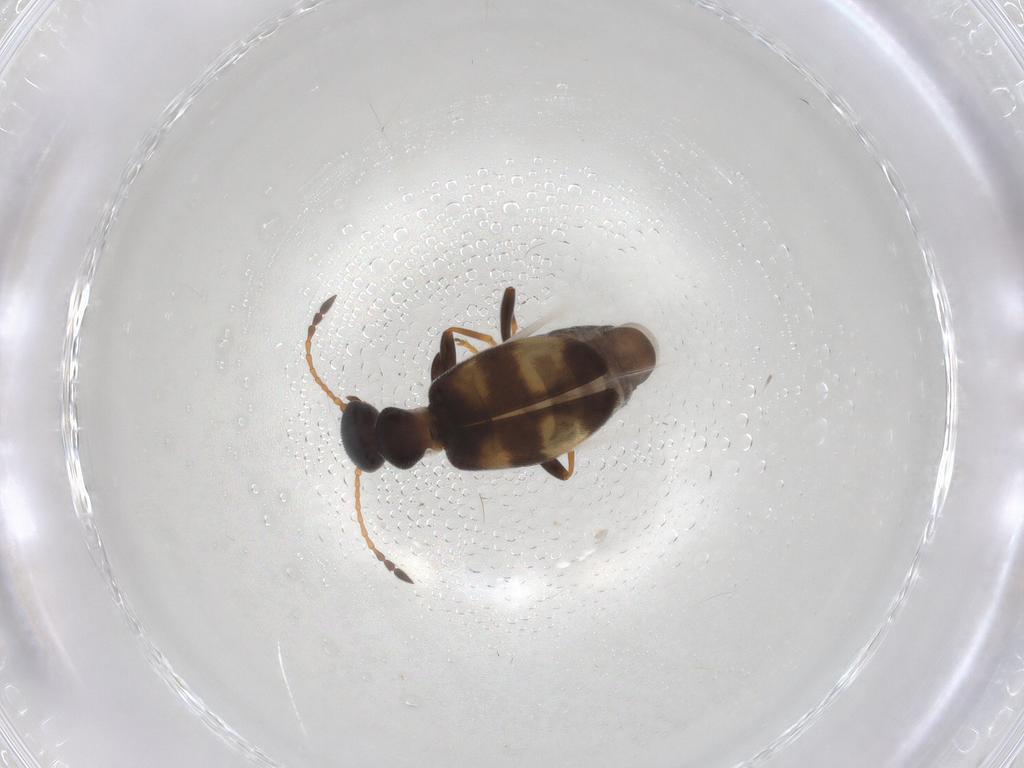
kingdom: Animalia
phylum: Arthropoda
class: Insecta
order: Coleoptera
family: Anthicidae
